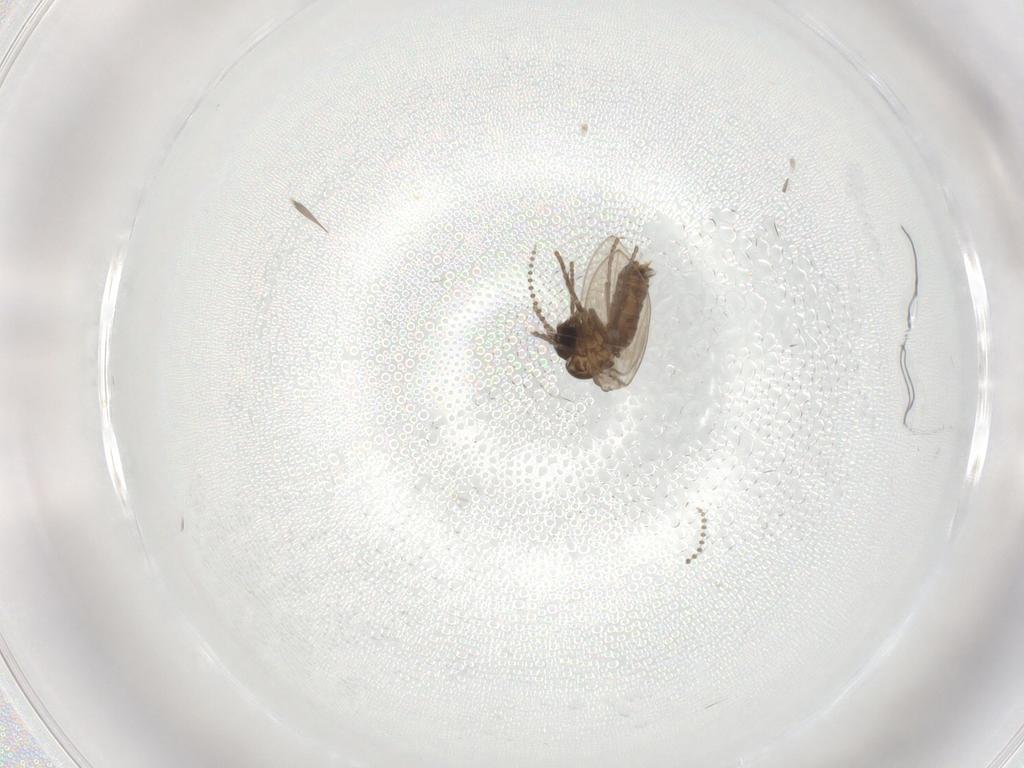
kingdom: Animalia
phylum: Arthropoda
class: Insecta
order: Diptera
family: Psychodidae
